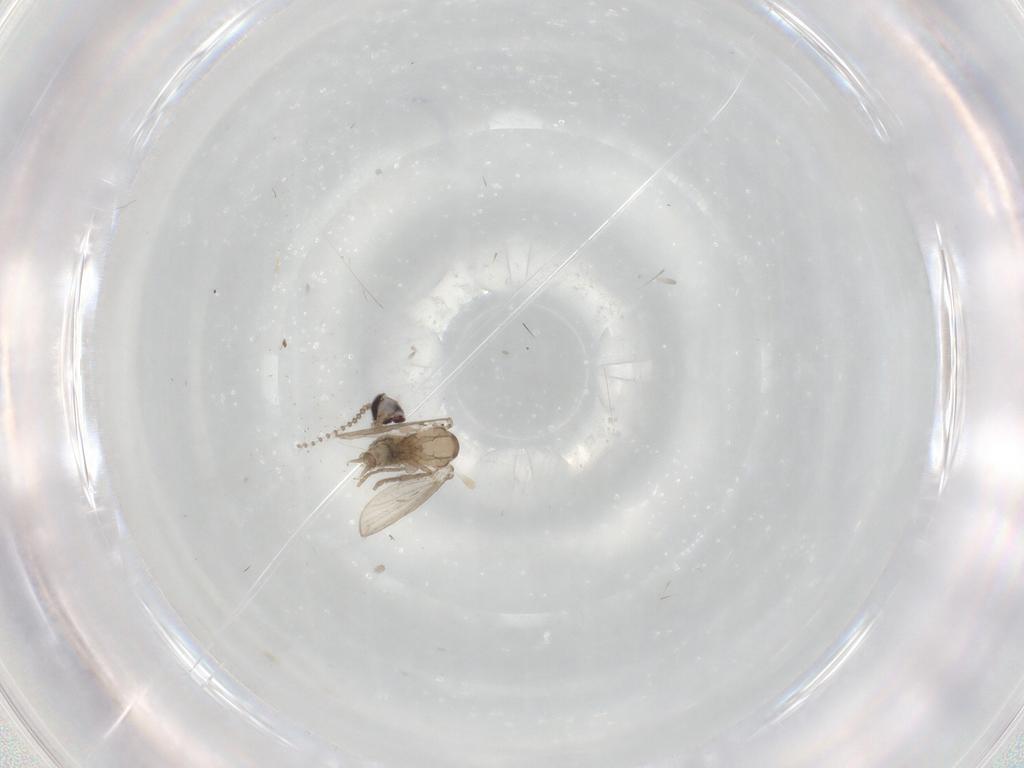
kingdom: Animalia
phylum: Arthropoda
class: Insecta
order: Diptera
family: Psychodidae
